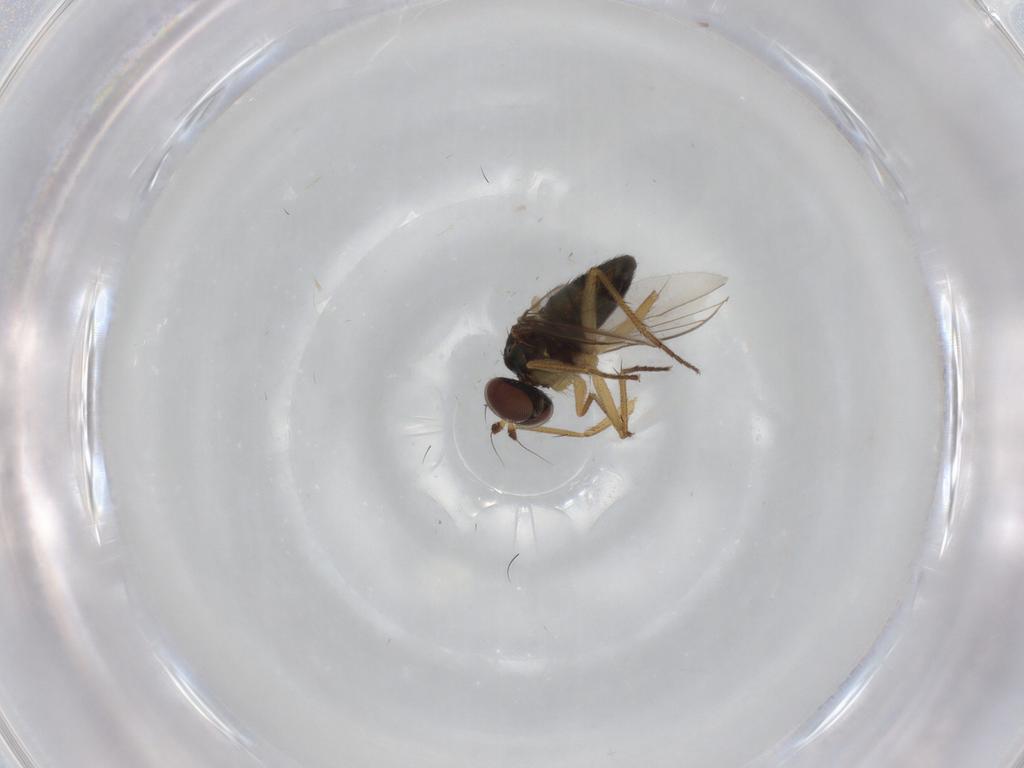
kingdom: Animalia
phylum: Arthropoda
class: Insecta
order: Diptera
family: Dolichopodidae
